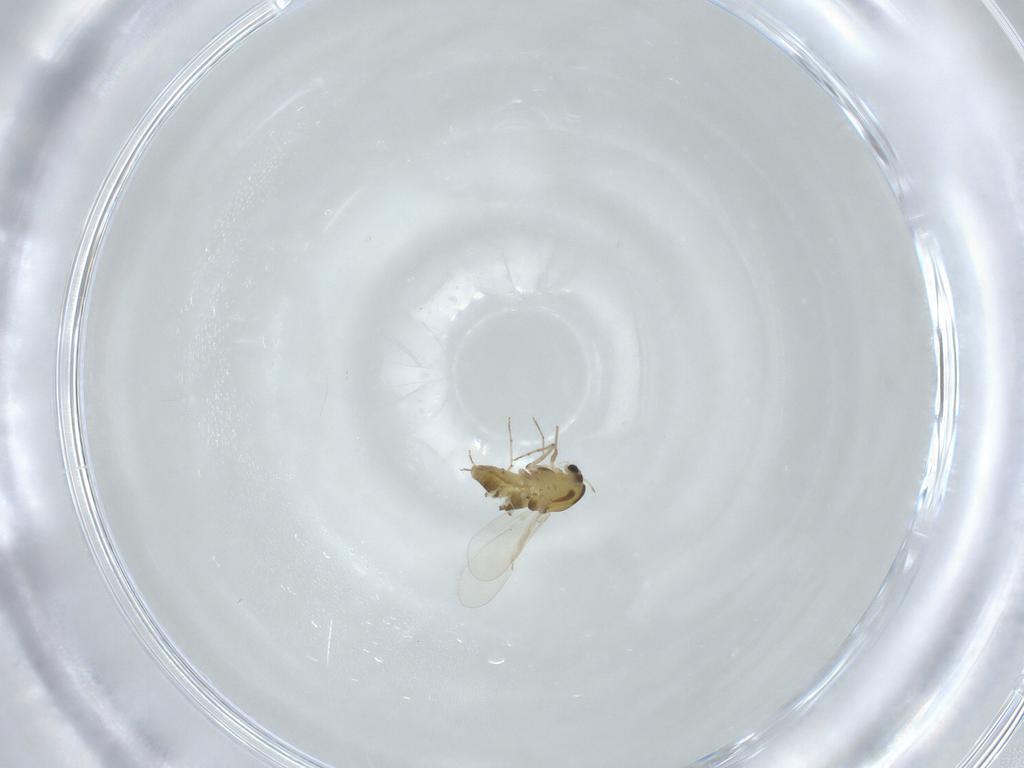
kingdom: Animalia
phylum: Arthropoda
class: Insecta
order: Diptera
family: Chironomidae
